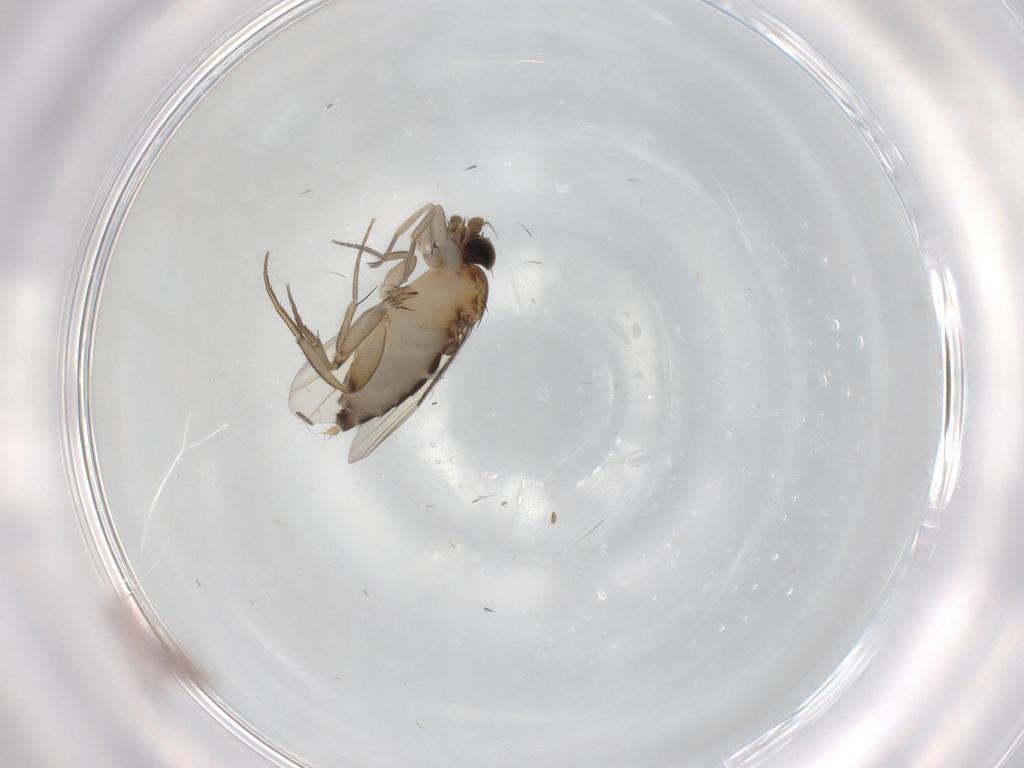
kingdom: Animalia
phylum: Arthropoda
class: Insecta
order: Diptera
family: Phoridae
